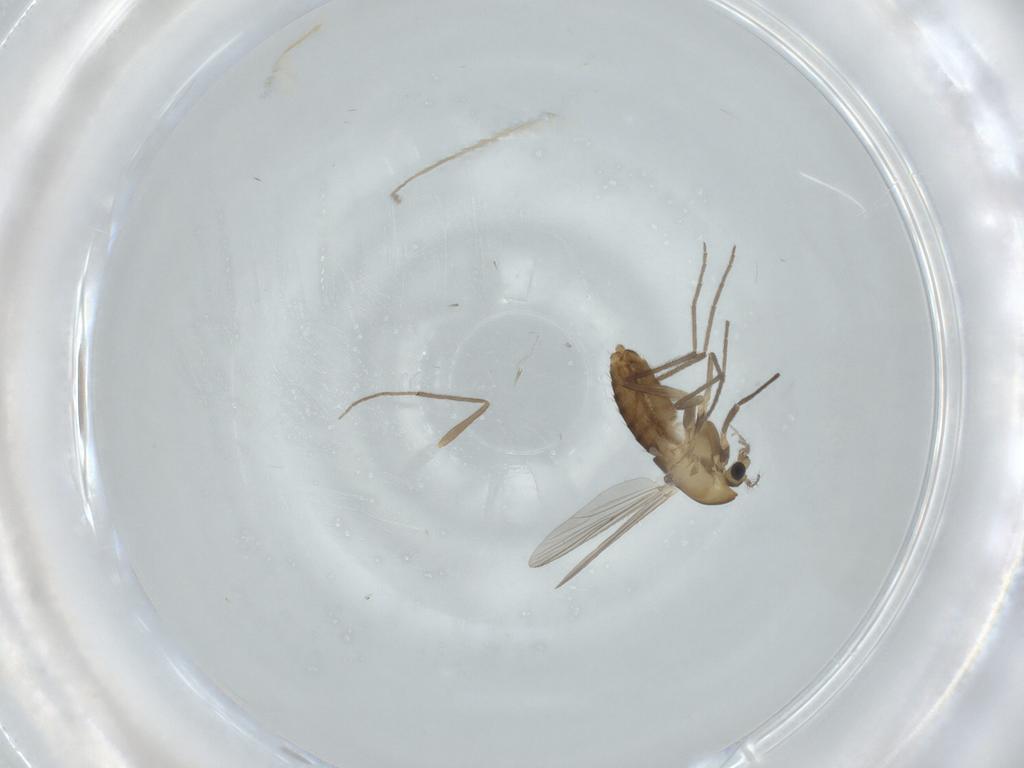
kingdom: Animalia
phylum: Arthropoda
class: Insecta
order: Diptera
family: Chironomidae
